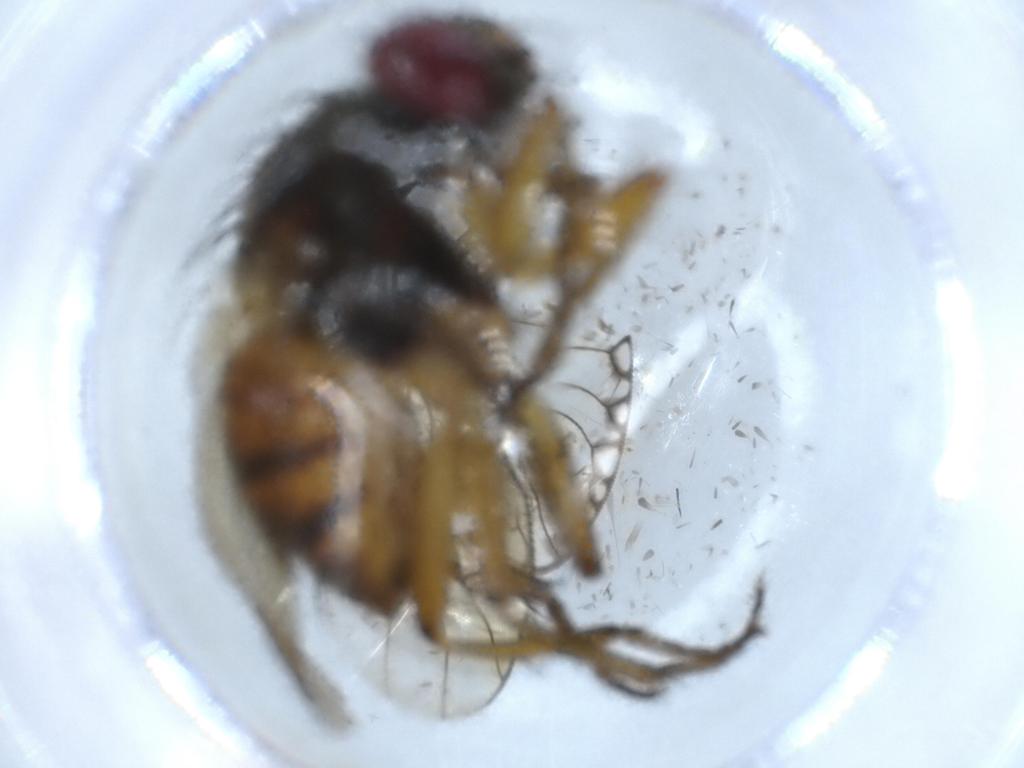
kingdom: Animalia
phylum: Arthropoda
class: Insecta
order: Diptera
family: Muscidae
